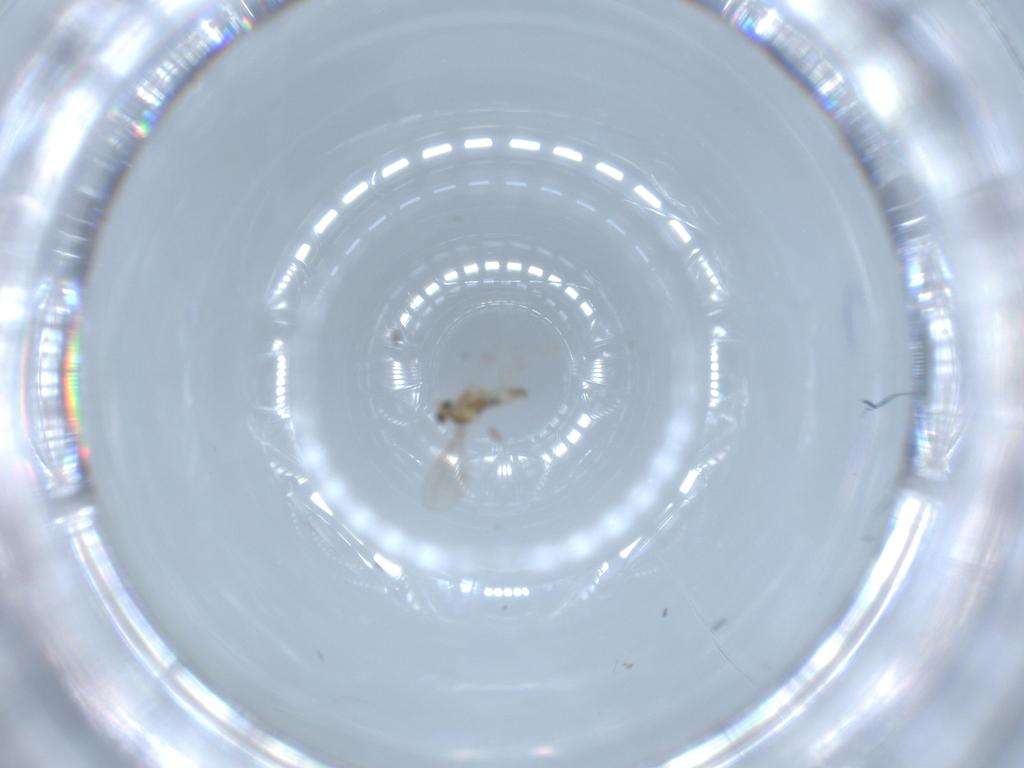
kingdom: Animalia
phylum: Arthropoda
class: Insecta
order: Diptera
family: Cecidomyiidae
